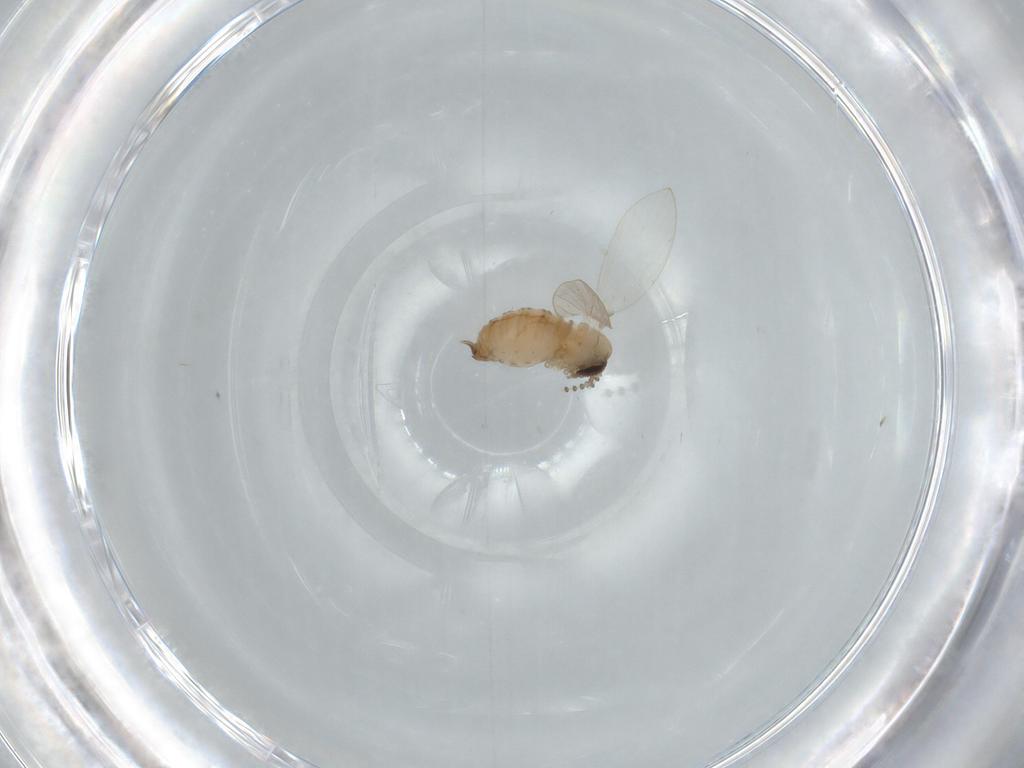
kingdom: Animalia
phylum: Arthropoda
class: Insecta
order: Diptera
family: Psychodidae
